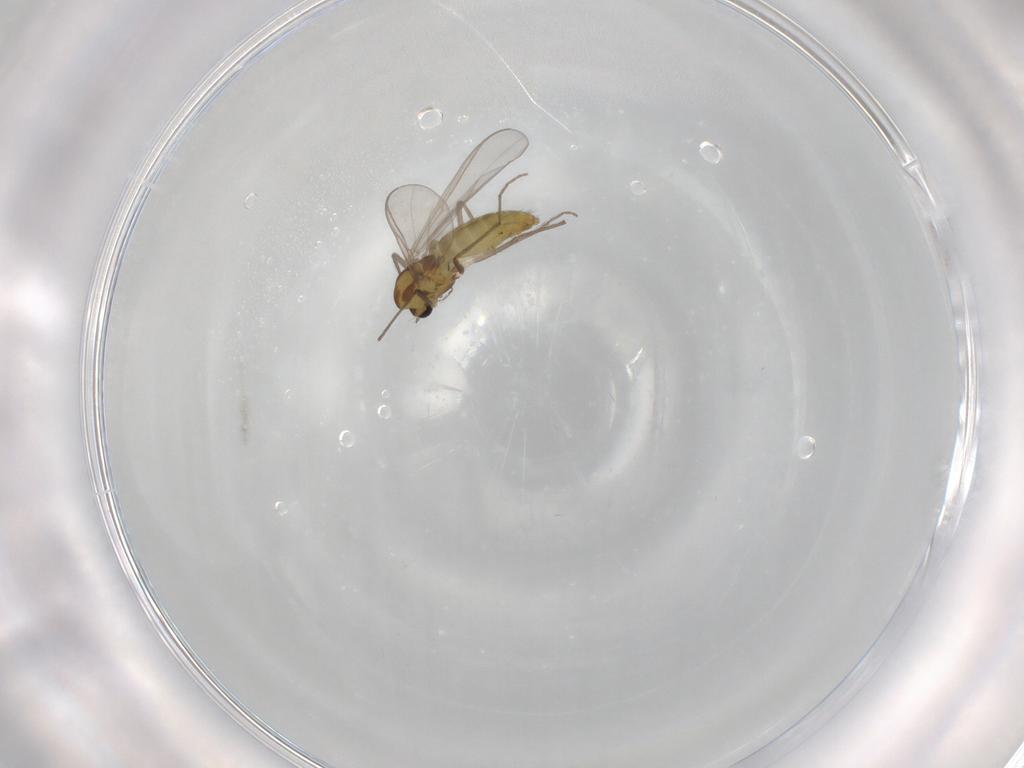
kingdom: Animalia
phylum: Arthropoda
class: Insecta
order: Diptera
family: Chironomidae
